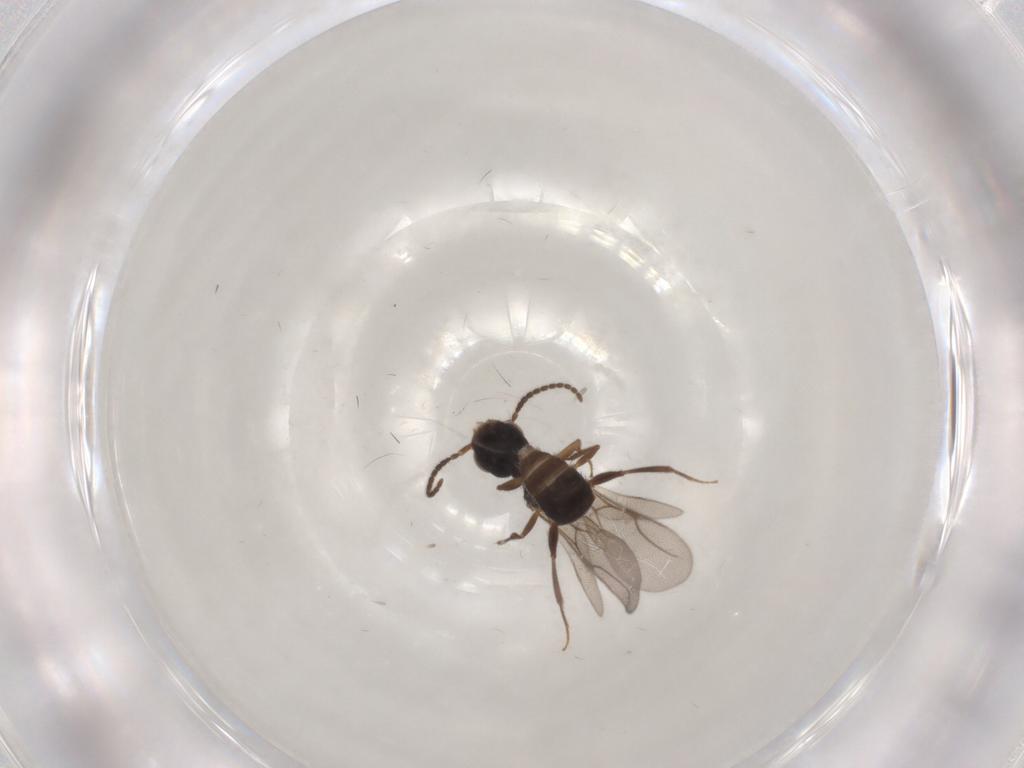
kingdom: Animalia
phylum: Arthropoda
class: Insecta
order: Hymenoptera
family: Bethylidae
